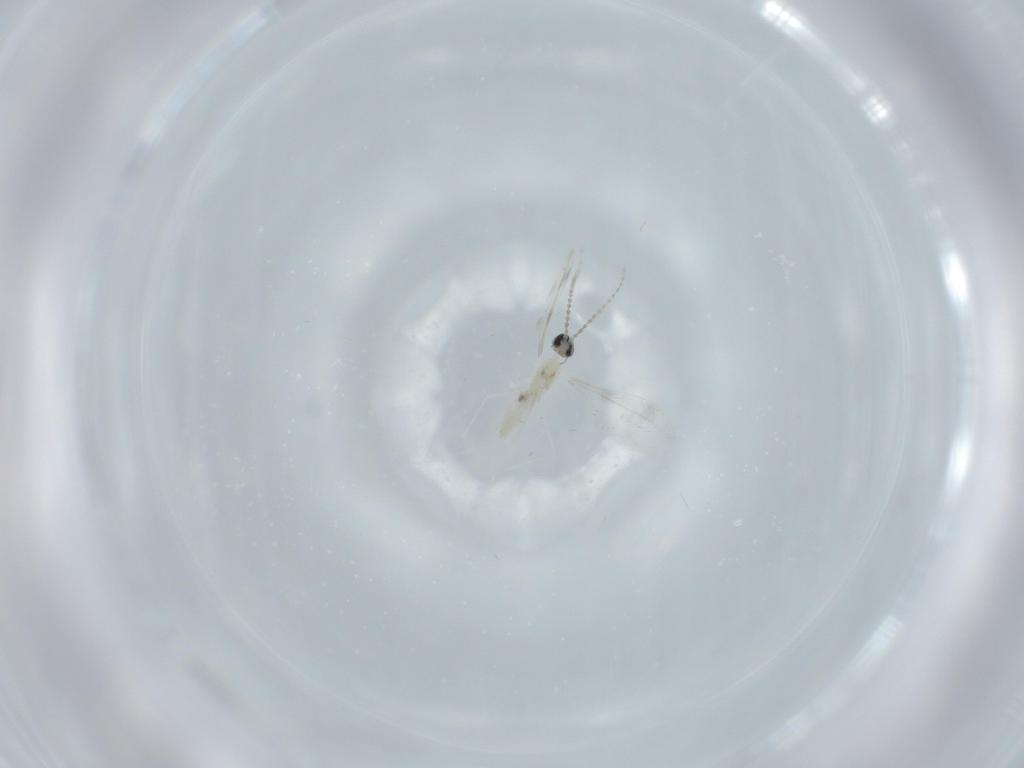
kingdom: Animalia
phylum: Arthropoda
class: Insecta
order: Diptera
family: Cecidomyiidae
